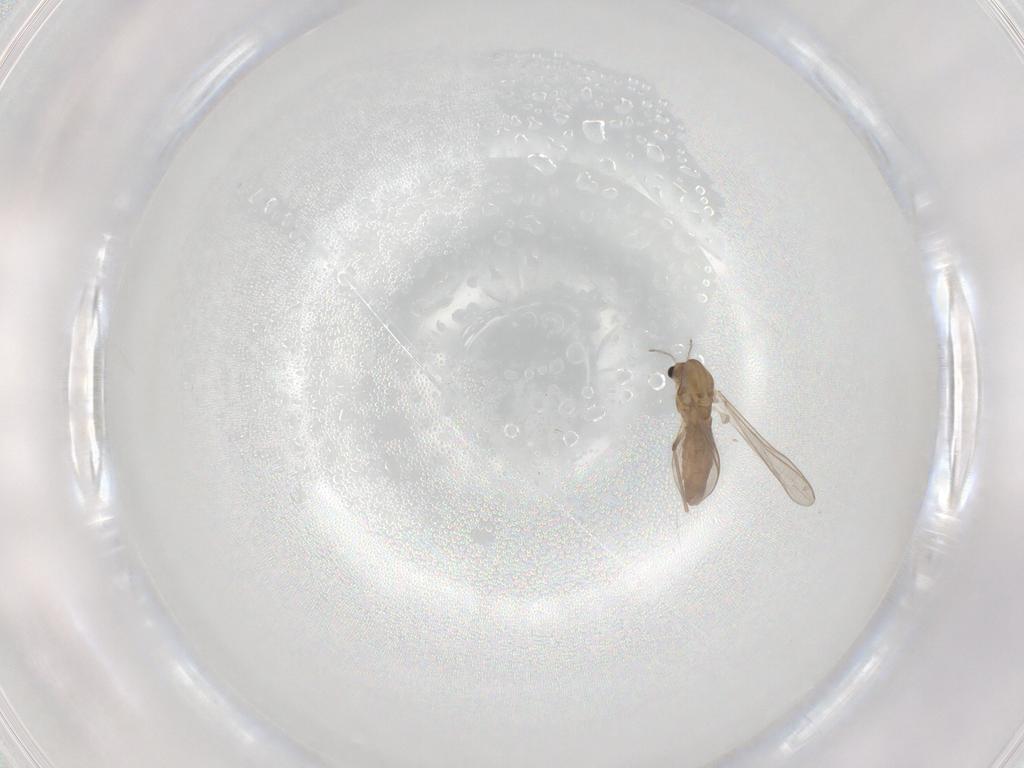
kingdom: Animalia
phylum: Arthropoda
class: Insecta
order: Diptera
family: Chironomidae
